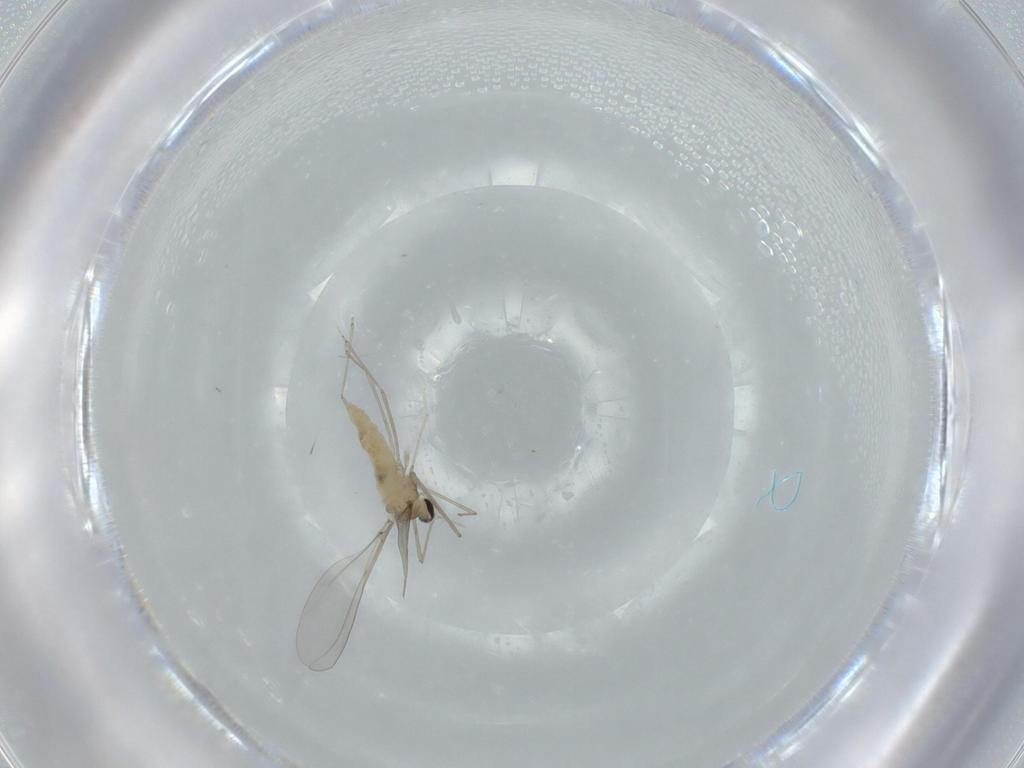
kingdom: Animalia
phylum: Arthropoda
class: Insecta
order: Diptera
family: Cecidomyiidae
